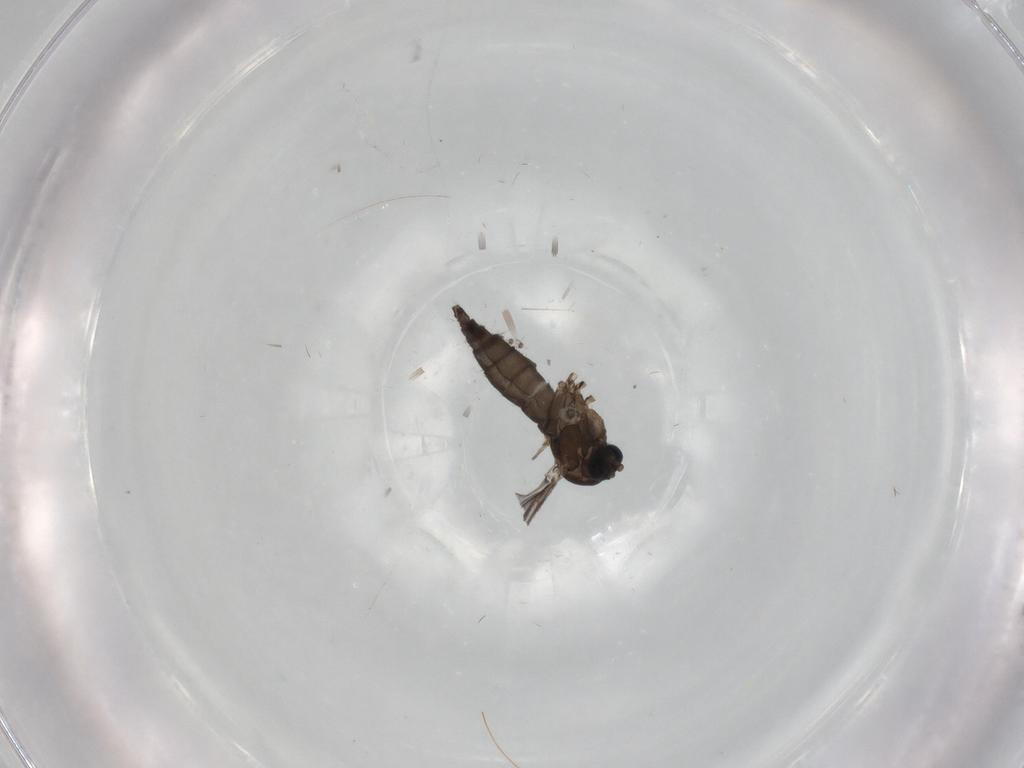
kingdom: Animalia
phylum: Arthropoda
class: Insecta
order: Diptera
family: Sciaridae
